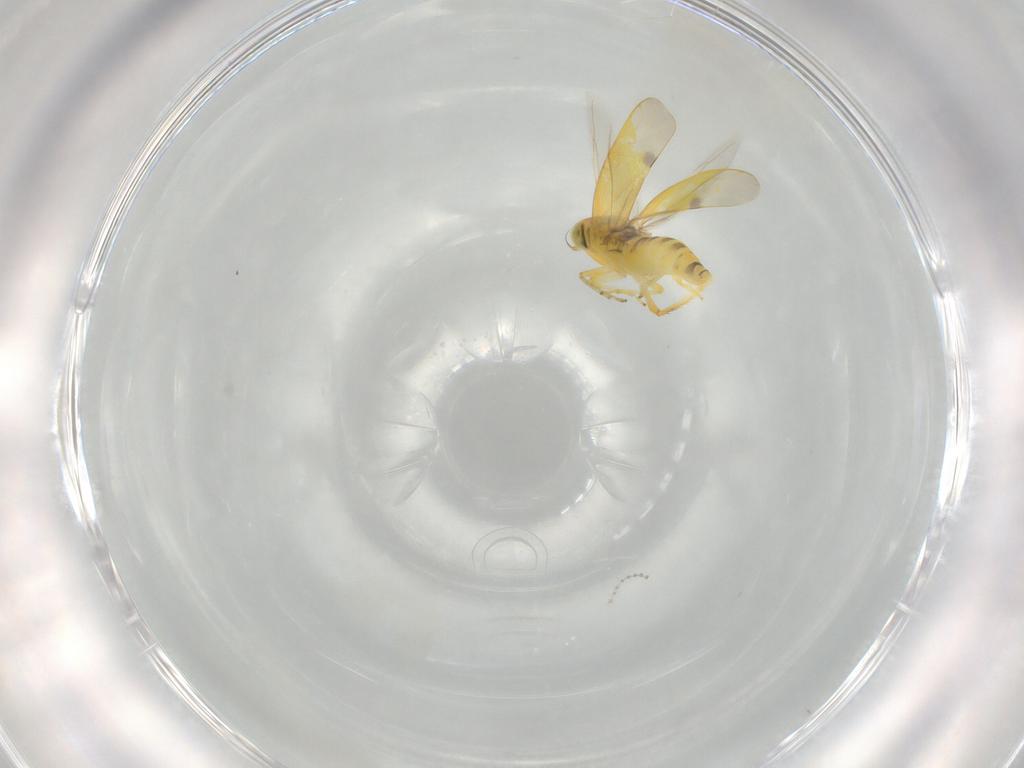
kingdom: Animalia
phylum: Arthropoda
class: Insecta
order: Hemiptera
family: Cicadellidae
